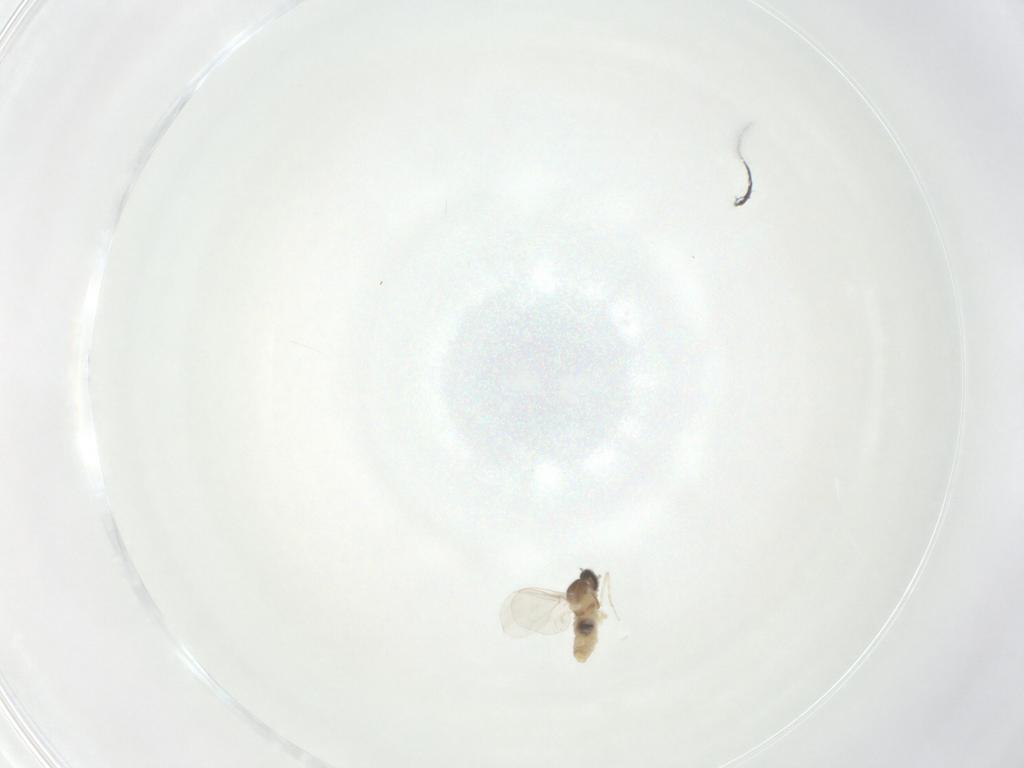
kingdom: Animalia
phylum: Arthropoda
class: Insecta
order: Diptera
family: Cecidomyiidae
